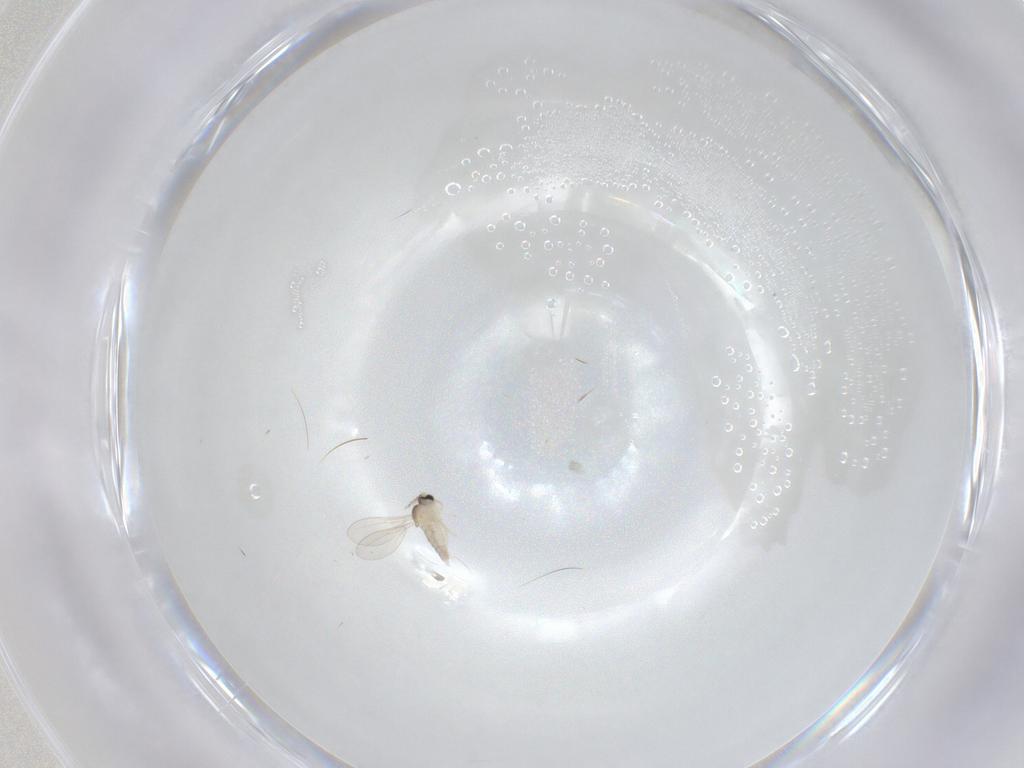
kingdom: Animalia
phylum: Arthropoda
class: Insecta
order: Diptera
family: Cecidomyiidae
